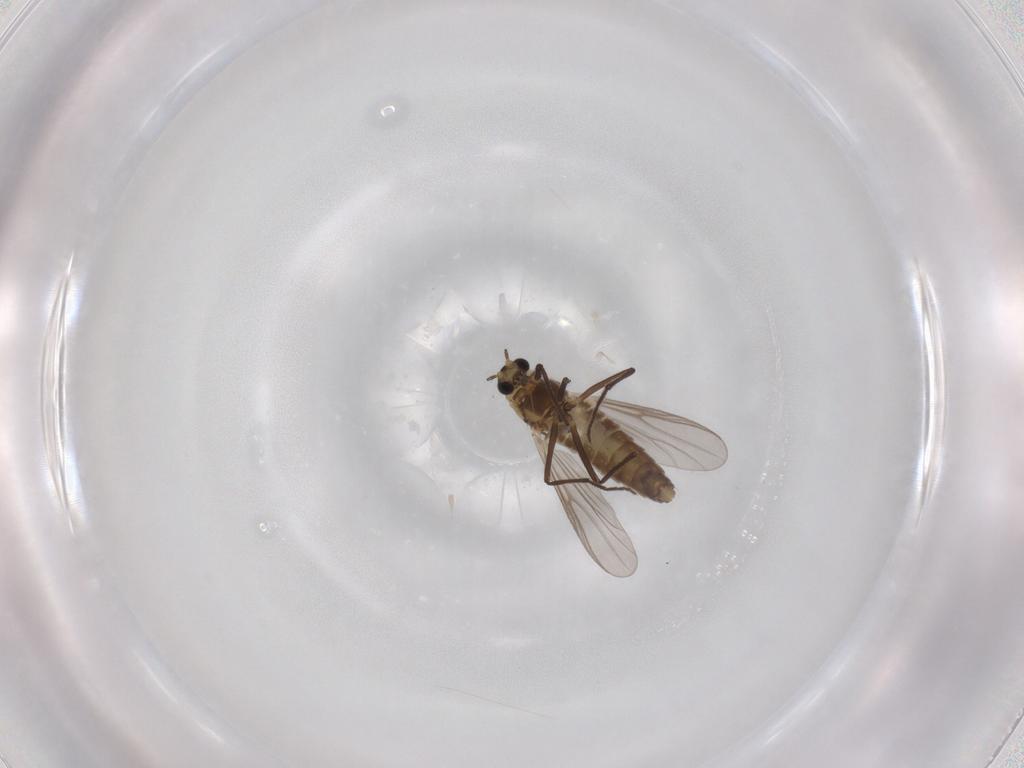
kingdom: Animalia
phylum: Arthropoda
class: Insecta
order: Diptera
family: Chironomidae
